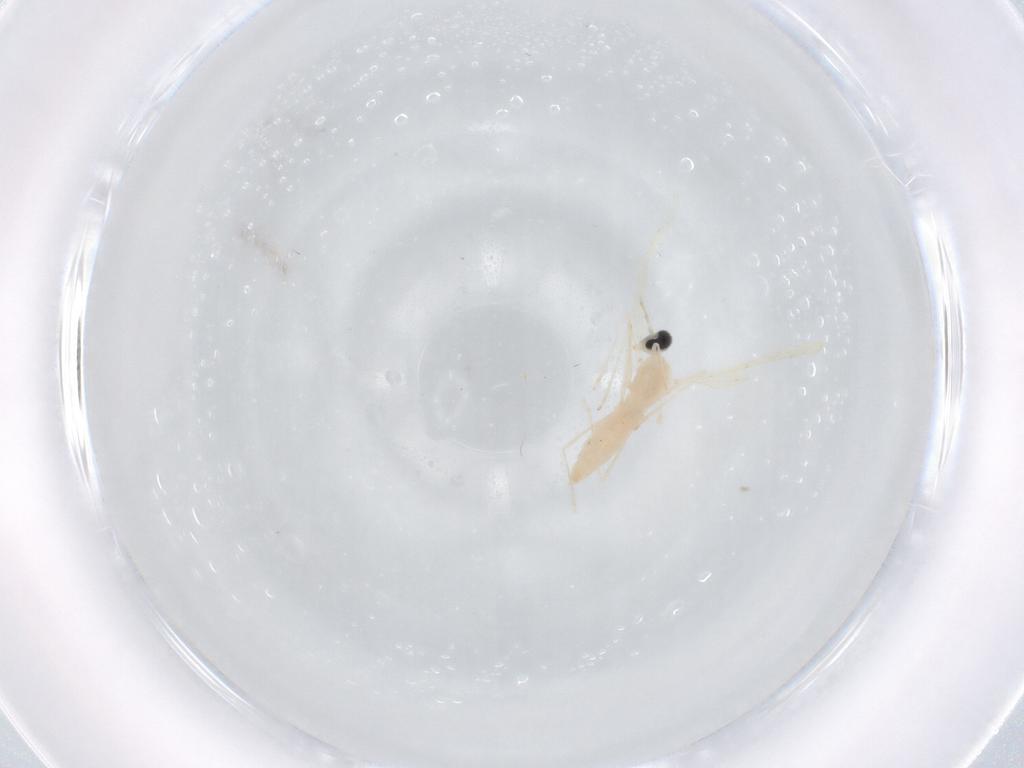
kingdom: Animalia
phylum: Arthropoda
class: Insecta
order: Diptera
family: Cecidomyiidae
